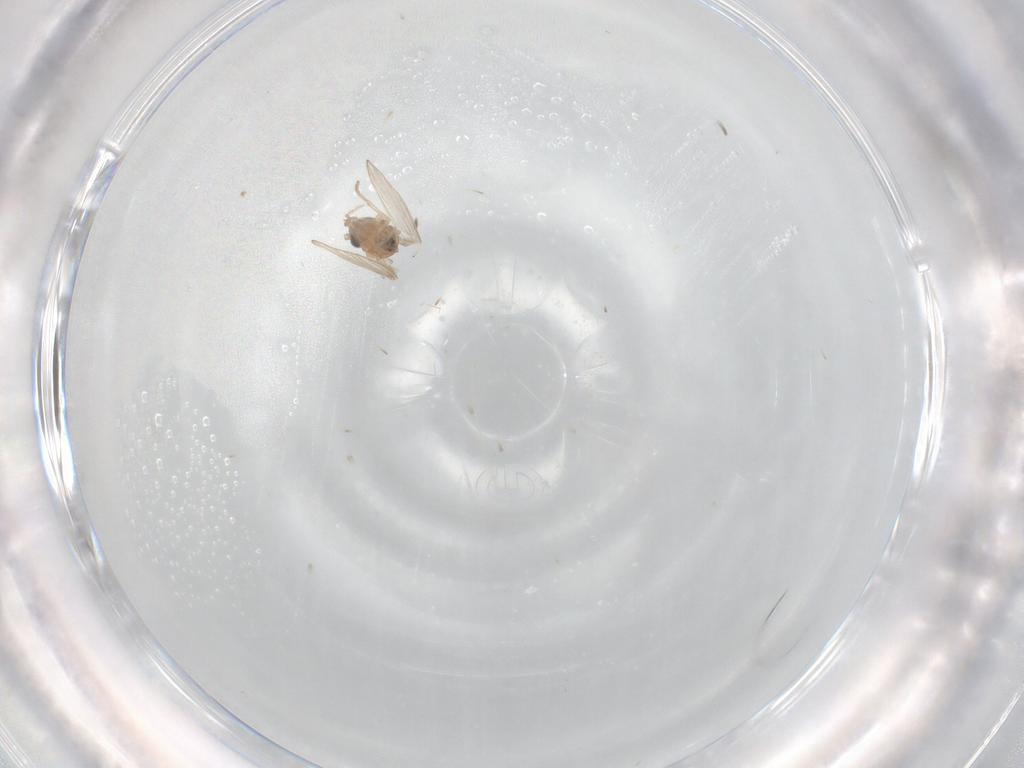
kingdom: Animalia
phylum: Arthropoda
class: Insecta
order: Diptera
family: Psychodidae
